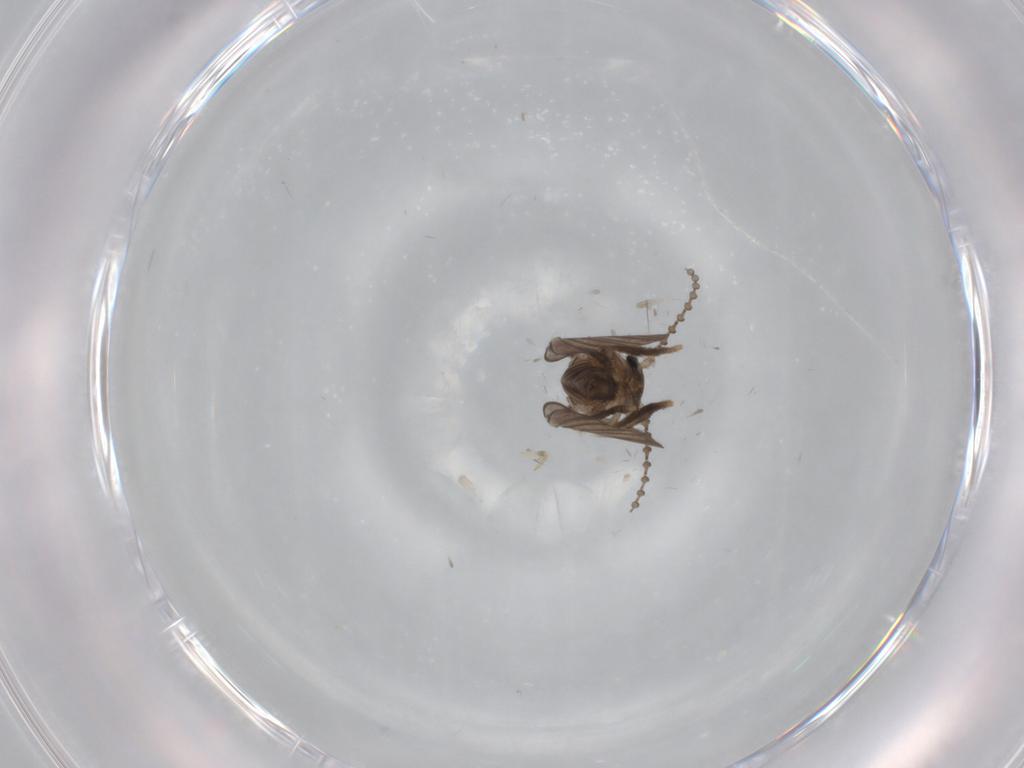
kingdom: Animalia
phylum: Arthropoda
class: Insecta
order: Diptera
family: Psychodidae
